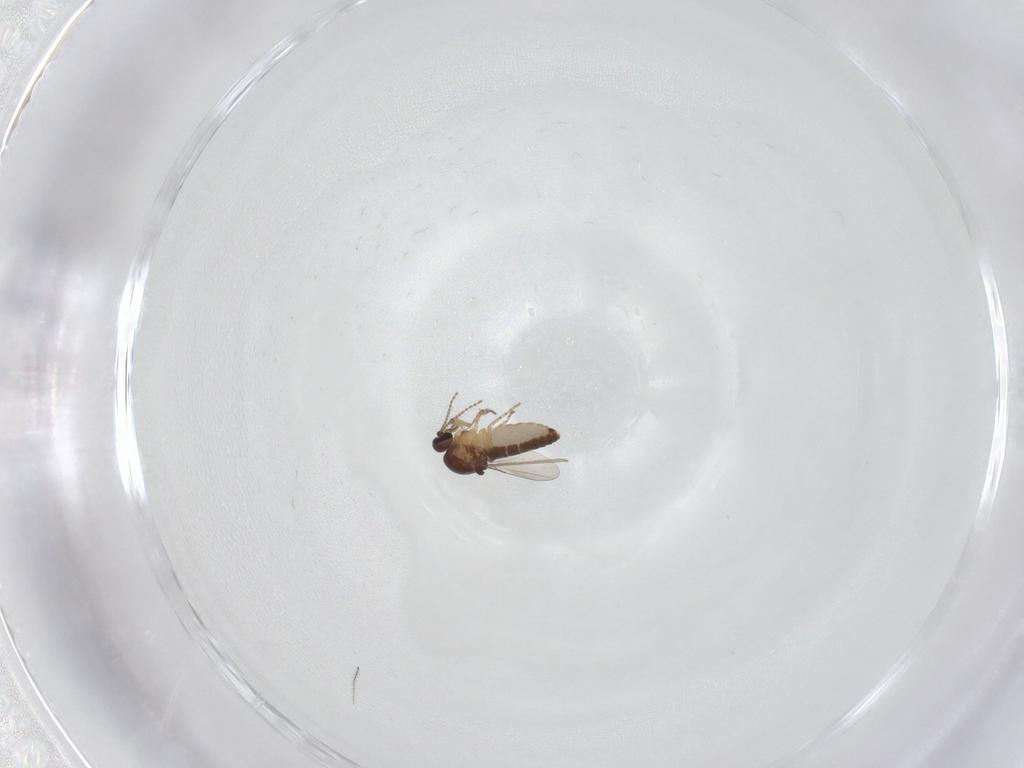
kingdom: Animalia
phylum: Arthropoda
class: Insecta
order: Diptera
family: Ceratopogonidae
